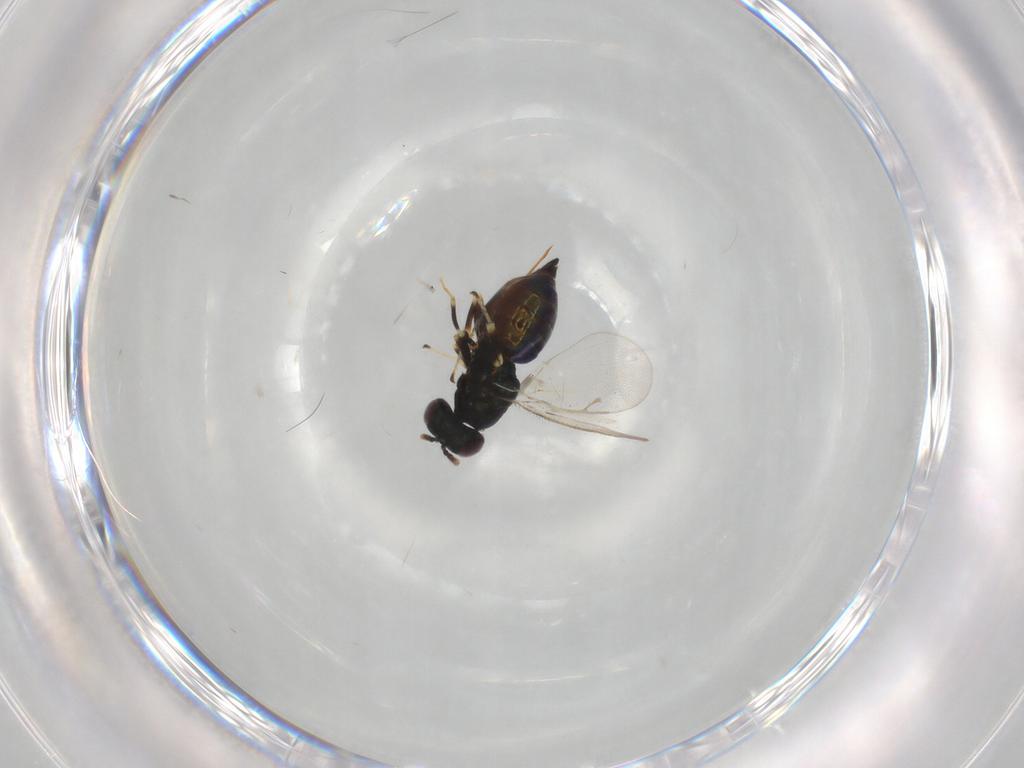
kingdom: Animalia
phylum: Arthropoda
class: Insecta
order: Hymenoptera
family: Pteromalidae
